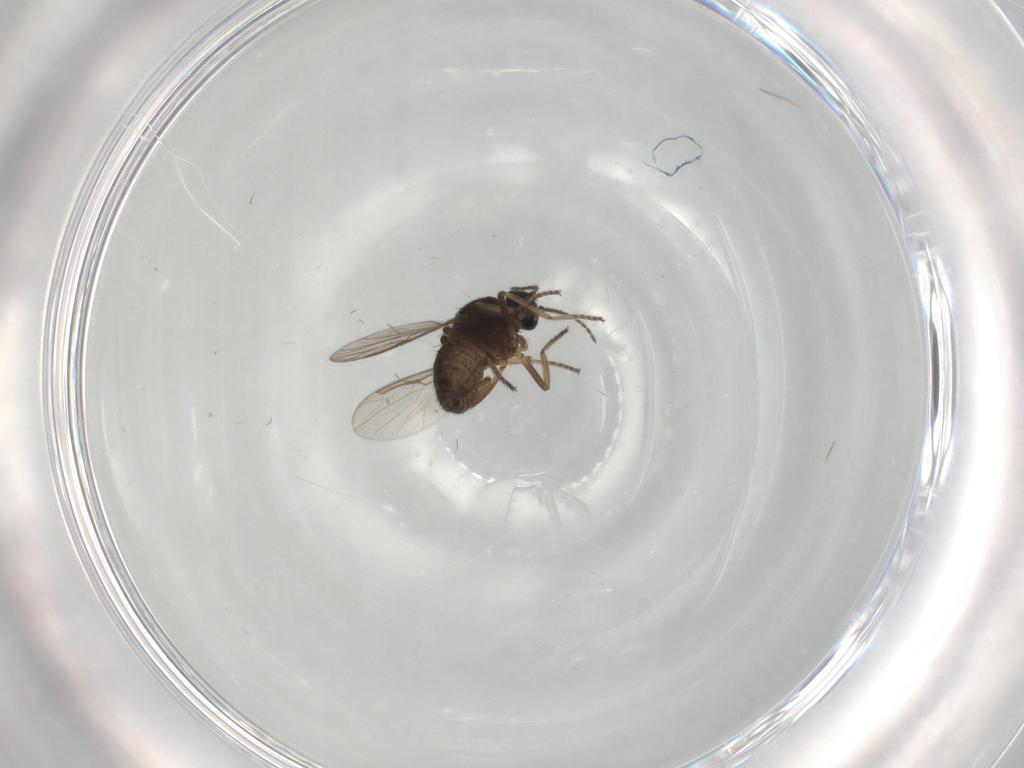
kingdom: Animalia
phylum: Arthropoda
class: Insecta
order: Diptera
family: Ceratopogonidae
